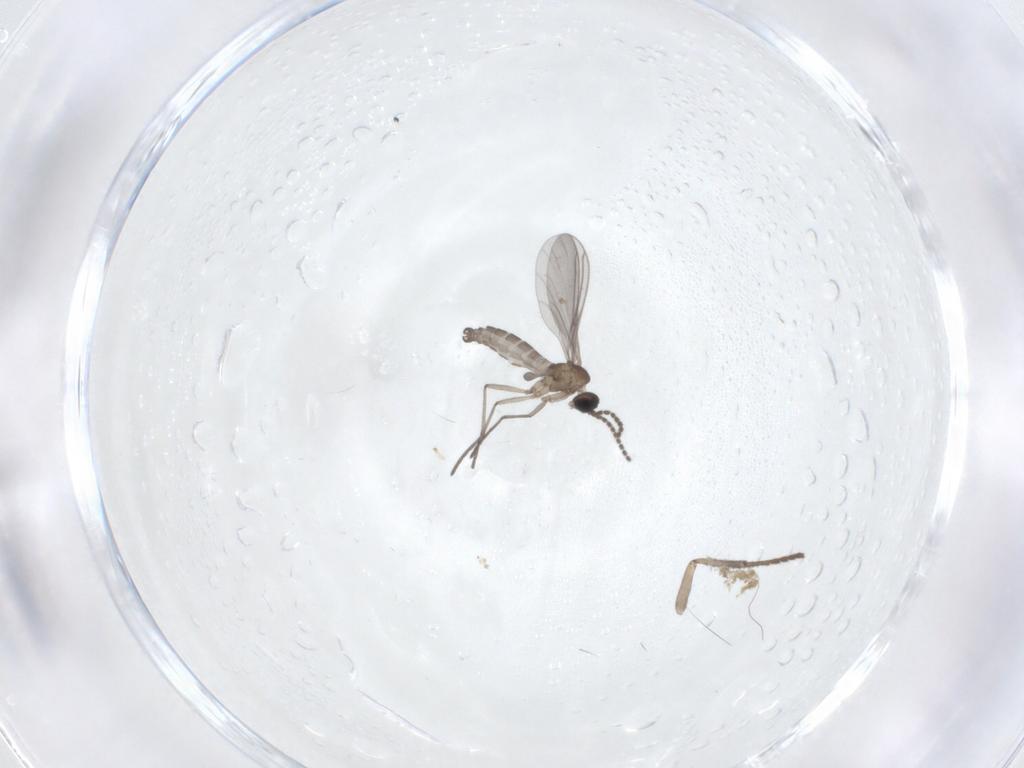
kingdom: Animalia
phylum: Arthropoda
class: Insecta
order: Diptera
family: Sciaridae
